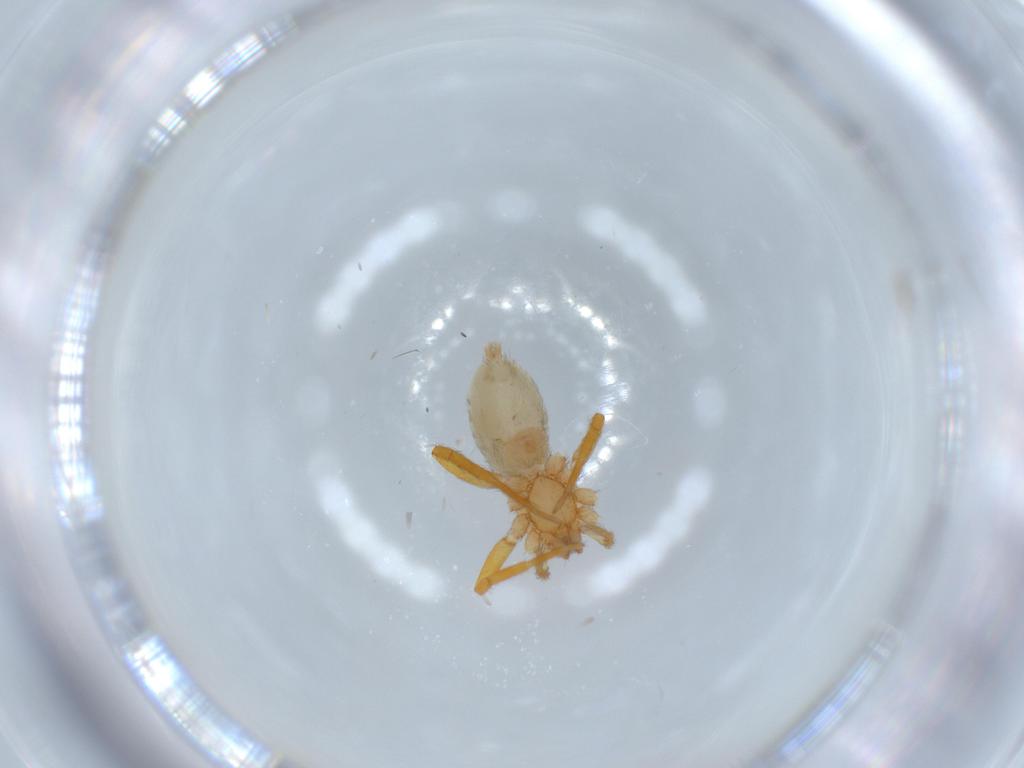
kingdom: Animalia
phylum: Arthropoda
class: Arachnida
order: Araneae
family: Oonopidae
